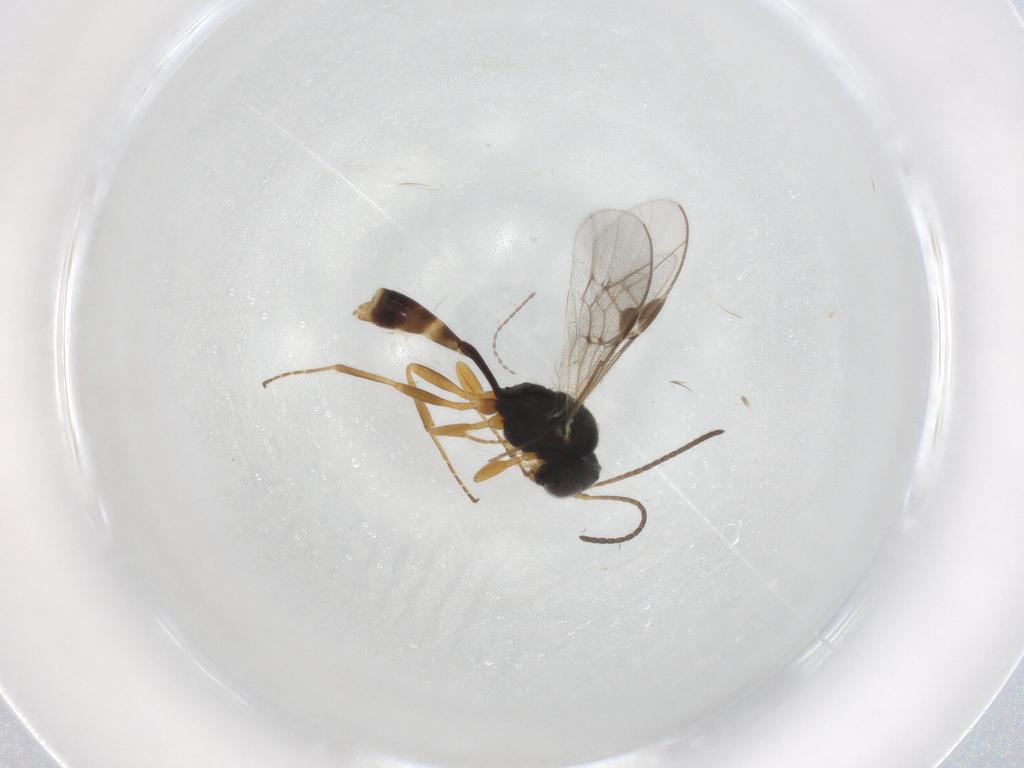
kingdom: Animalia
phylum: Arthropoda
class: Insecta
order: Hymenoptera
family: Ichneumonidae
